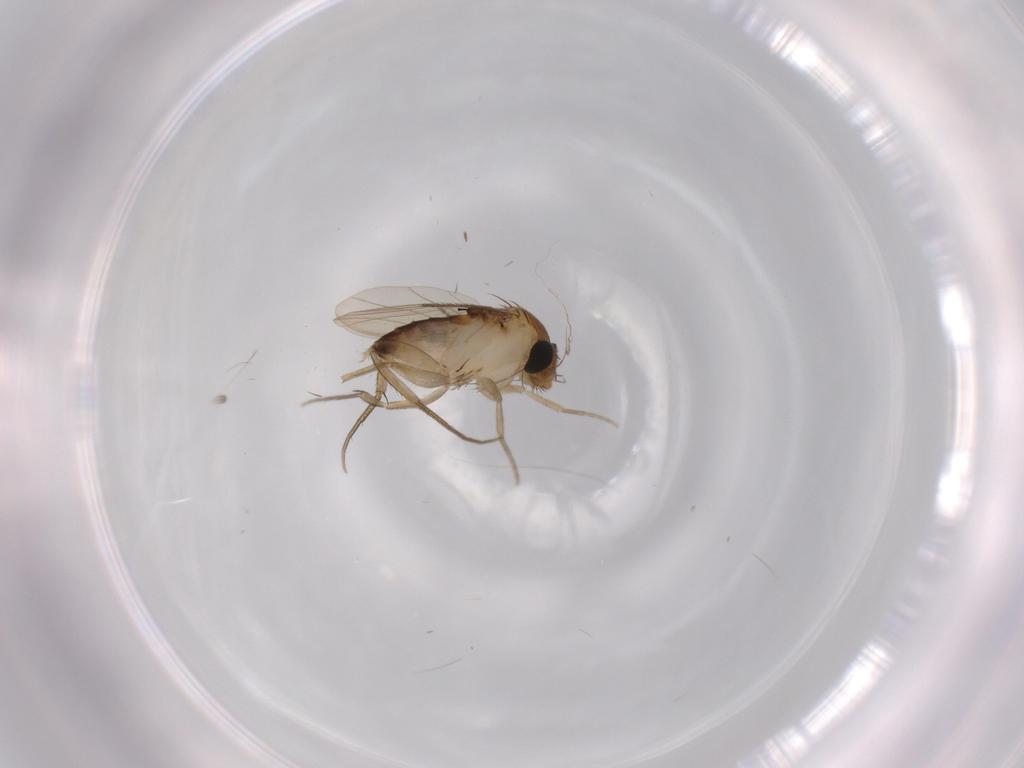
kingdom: Animalia
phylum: Arthropoda
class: Insecta
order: Diptera
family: Phoridae
